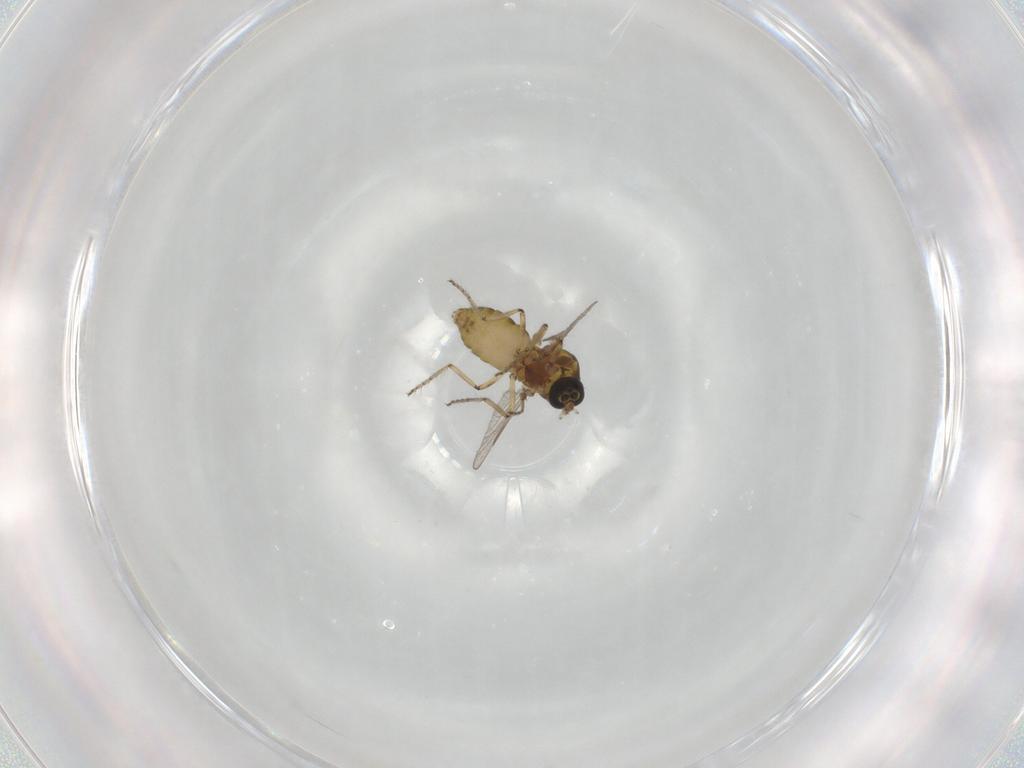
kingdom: Animalia
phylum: Arthropoda
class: Insecta
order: Diptera
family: Ceratopogonidae
